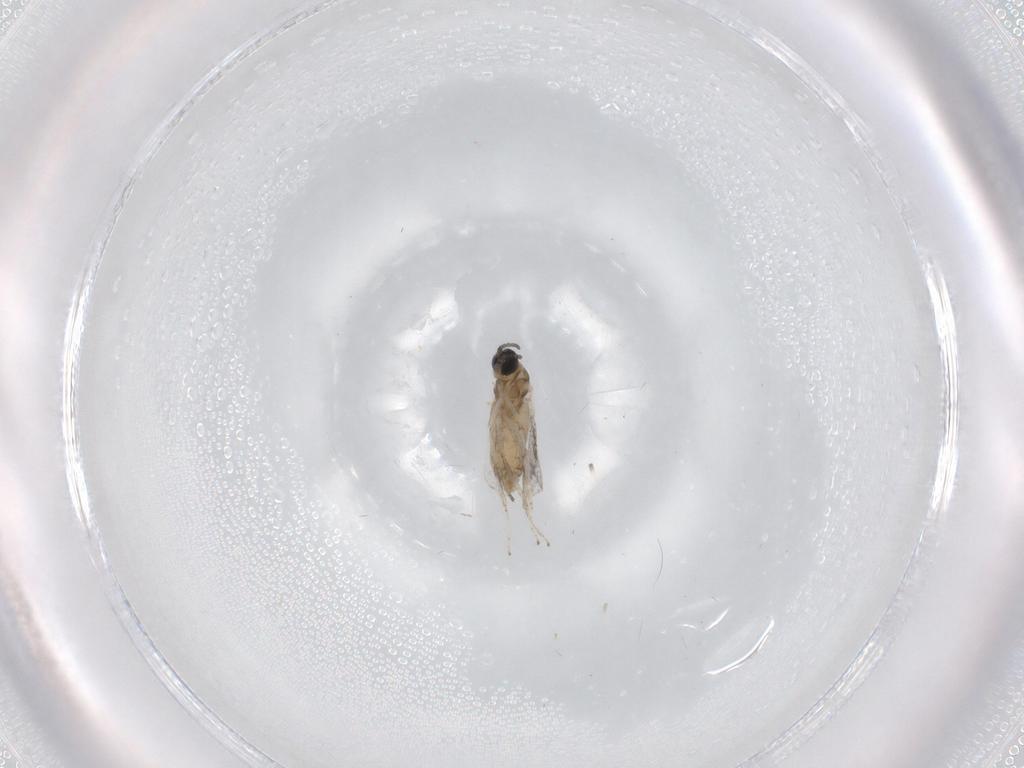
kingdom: Animalia
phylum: Arthropoda
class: Insecta
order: Diptera
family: Cecidomyiidae
